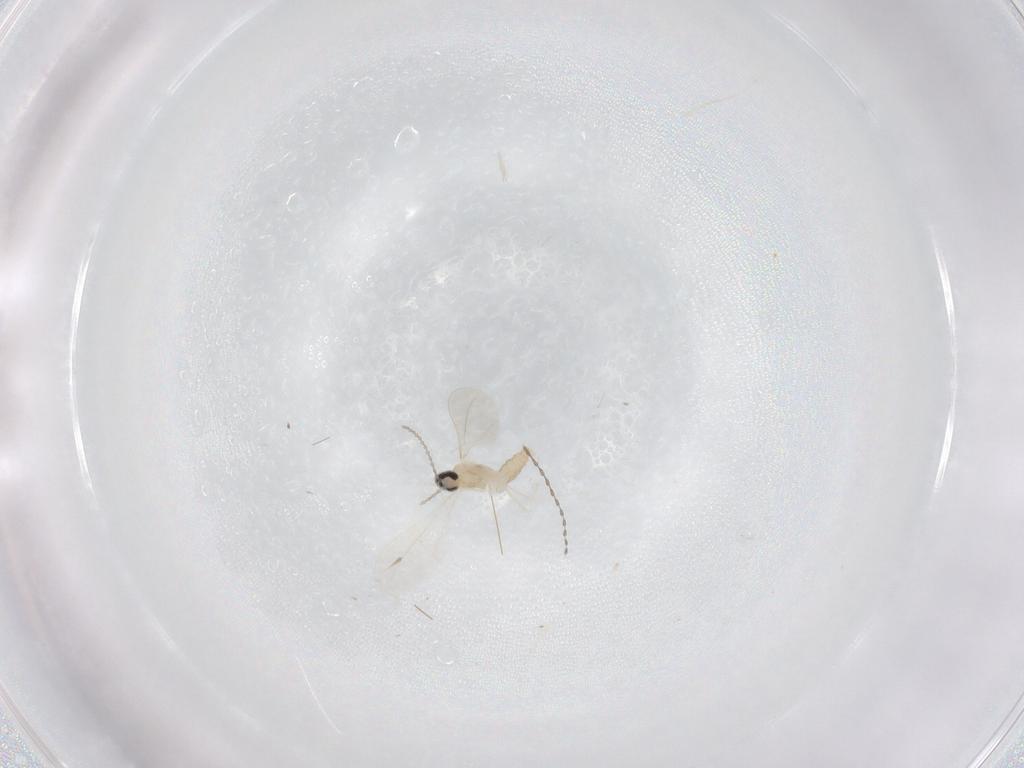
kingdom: Animalia
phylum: Arthropoda
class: Insecta
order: Diptera
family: Cecidomyiidae
